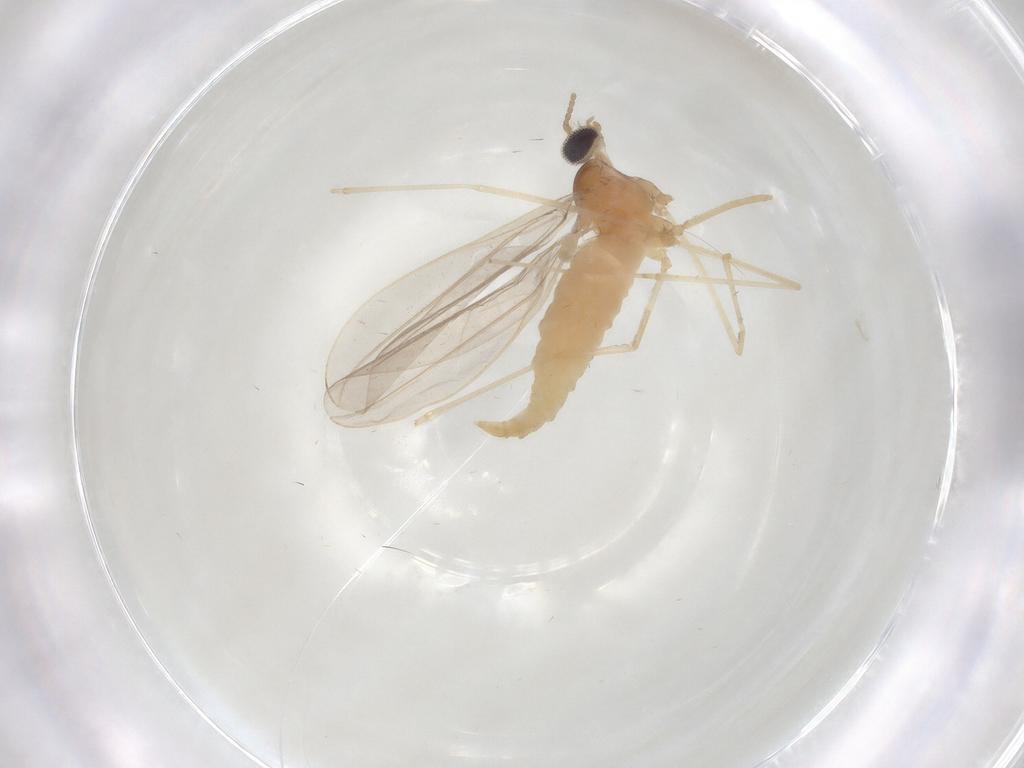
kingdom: Animalia
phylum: Arthropoda
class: Insecta
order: Diptera
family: Cecidomyiidae
